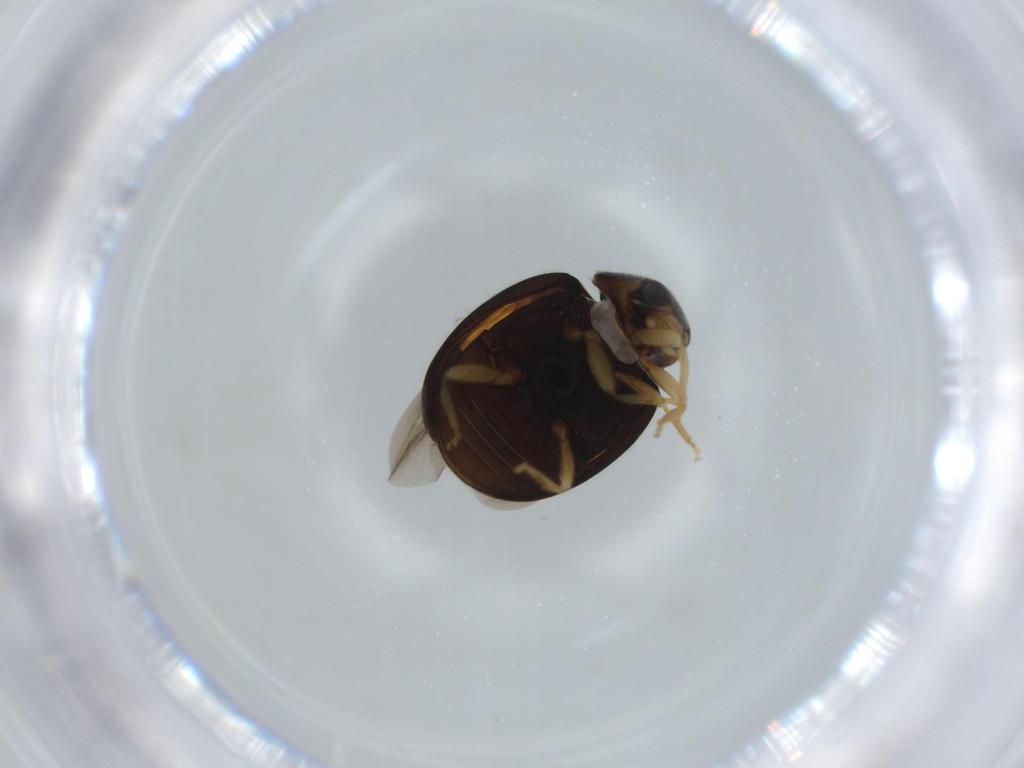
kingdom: Animalia
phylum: Arthropoda
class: Insecta
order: Coleoptera
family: Coccinellidae
